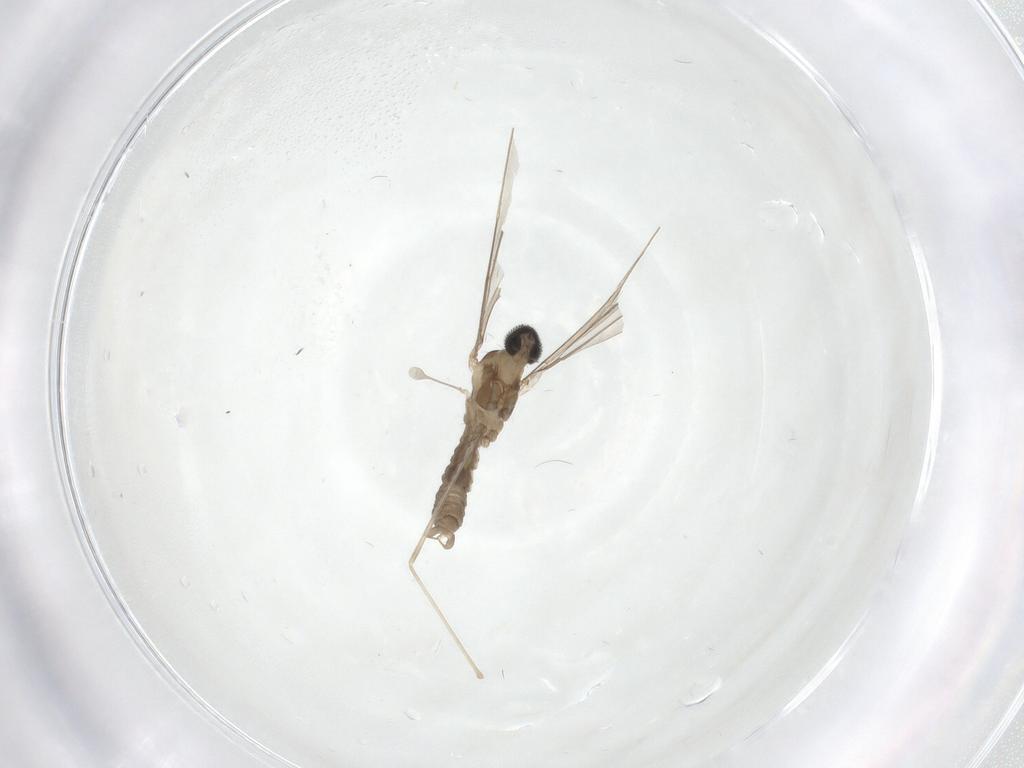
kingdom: Animalia
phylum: Arthropoda
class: Insecta
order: Diptera
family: Cecidomyiidae
